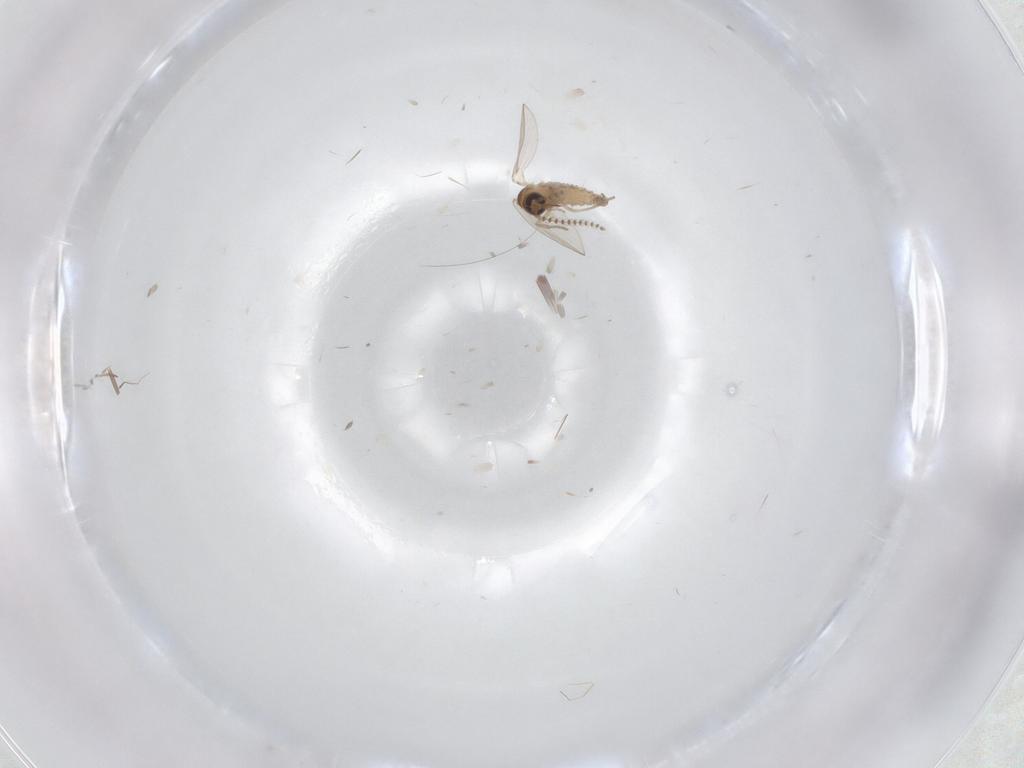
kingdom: Animalia
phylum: Arthropoda
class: Insecta
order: Diptera
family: Psychodidae
